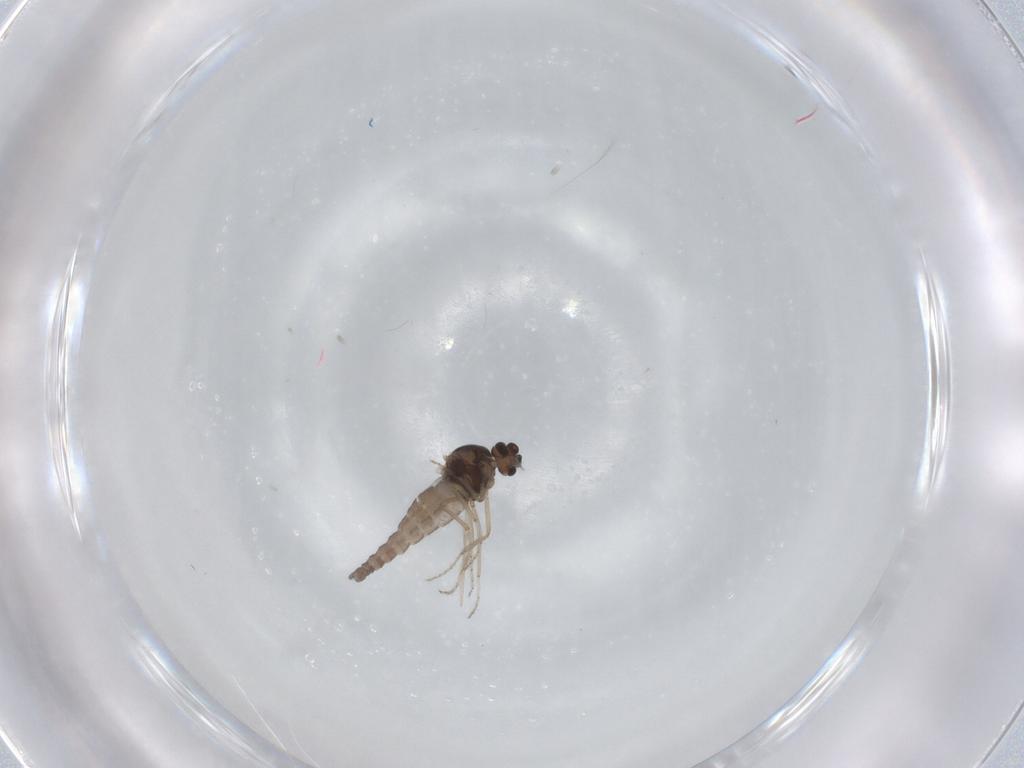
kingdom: Animalia
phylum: Arthropoda
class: Insecta
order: Diptera
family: Ceratopogonidae
